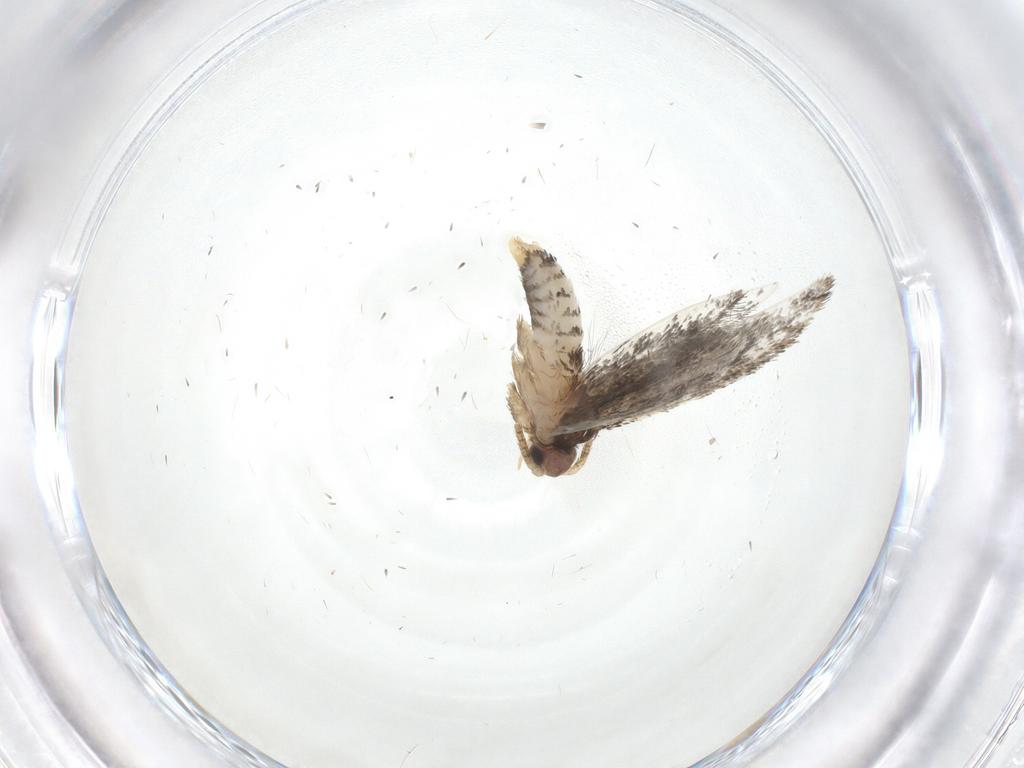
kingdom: Animalia
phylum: Arthropoda
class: Insecta
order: Lepidoptera
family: Tineidae
